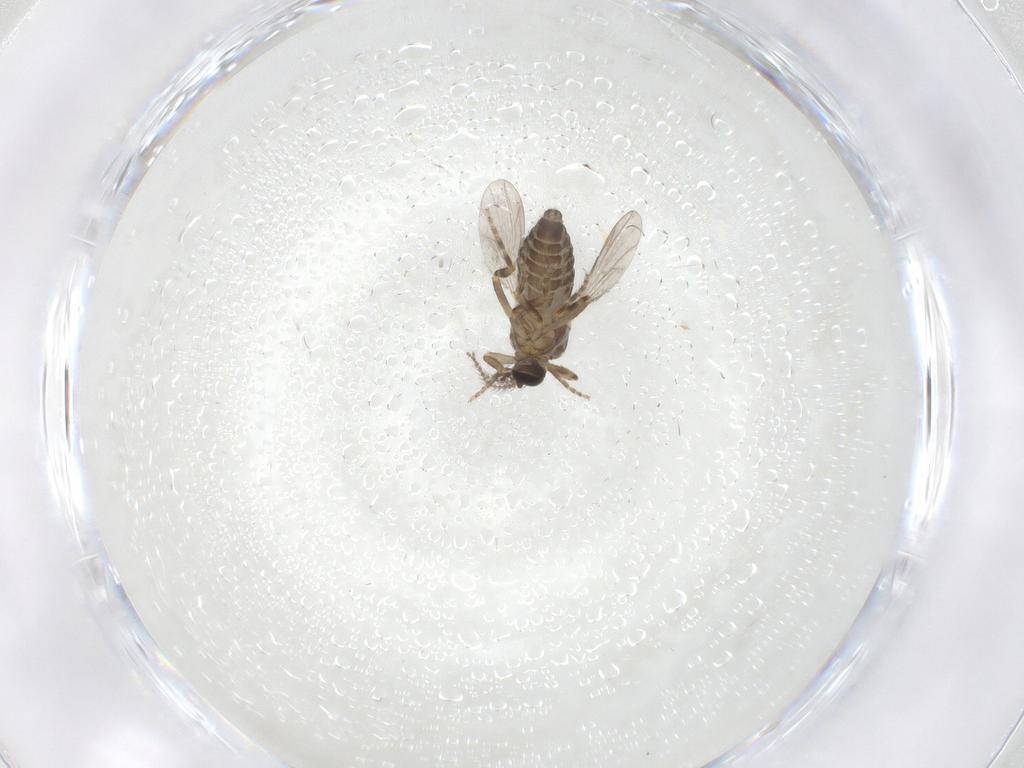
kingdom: Animalia
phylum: Arthropoda
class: Insecta
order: Diptera
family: Ceratopogonidae
